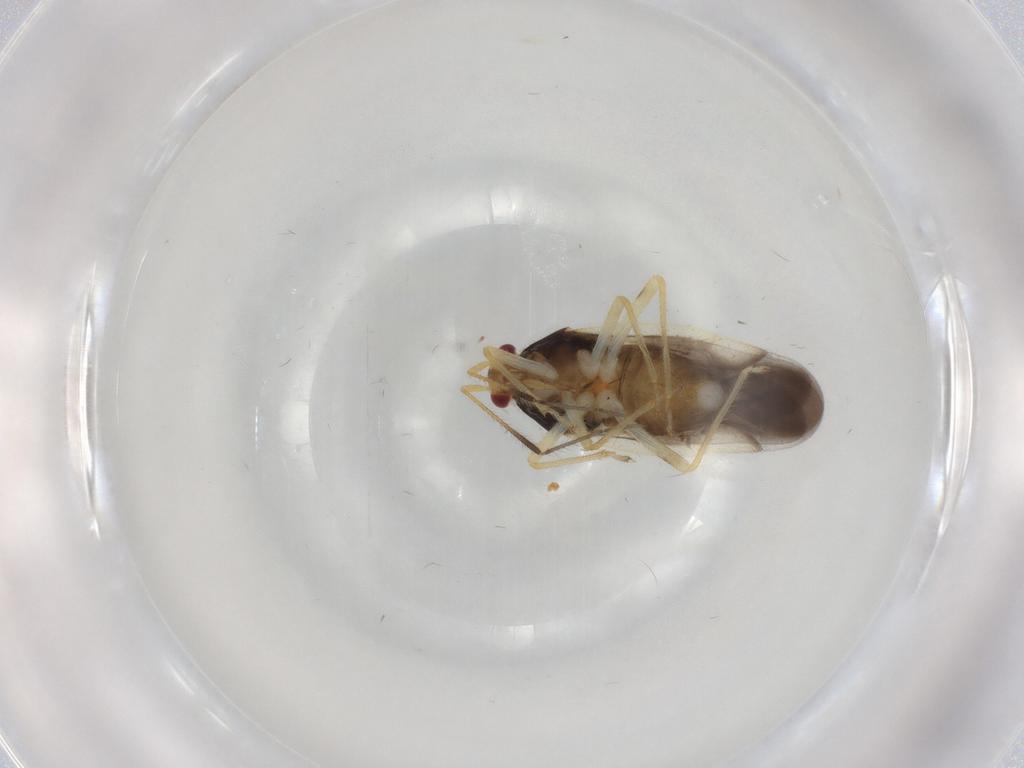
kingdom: Animalia
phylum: Arthropoda
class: Insecta
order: Hemiptera
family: Miridae
